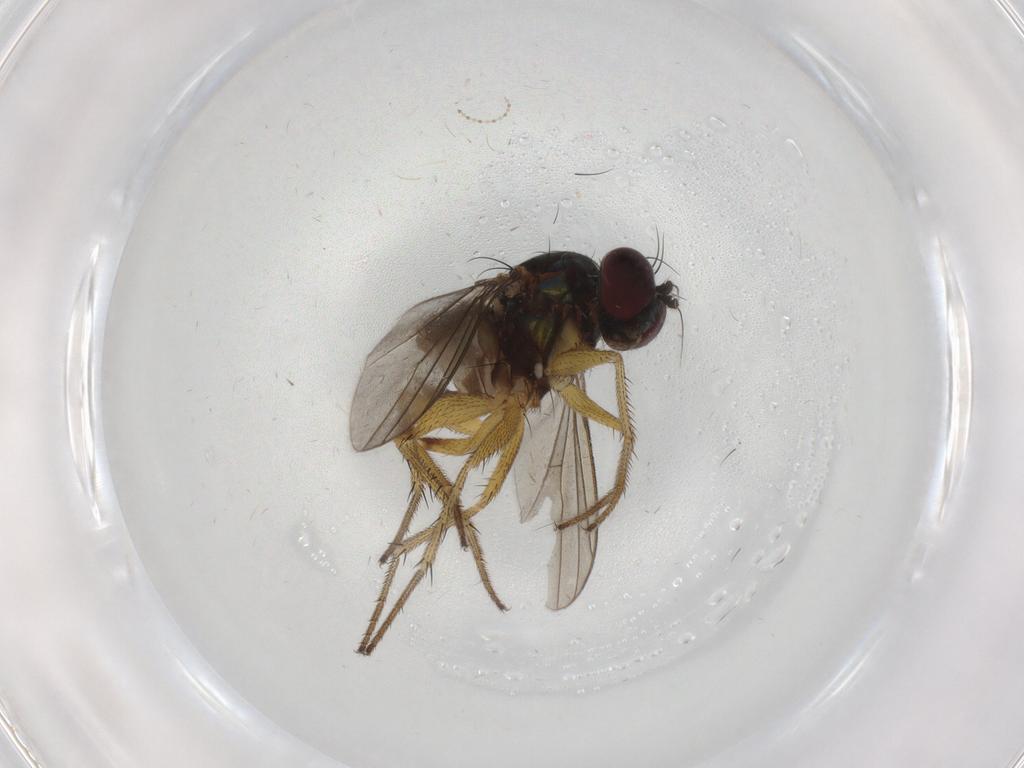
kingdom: Animalia
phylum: Arthropoda
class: Insecta
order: Diptera
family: Dolichopodidae
